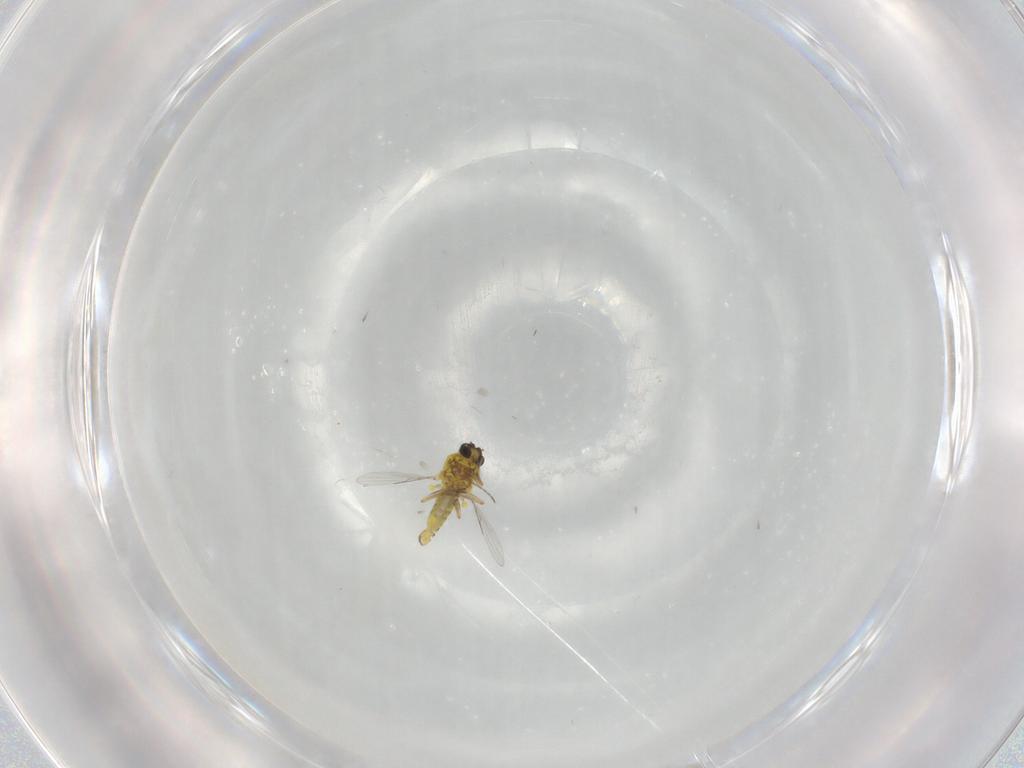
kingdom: Animalia
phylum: Arthropoda
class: Insecta
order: Diptera
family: Ceratopogonidae
